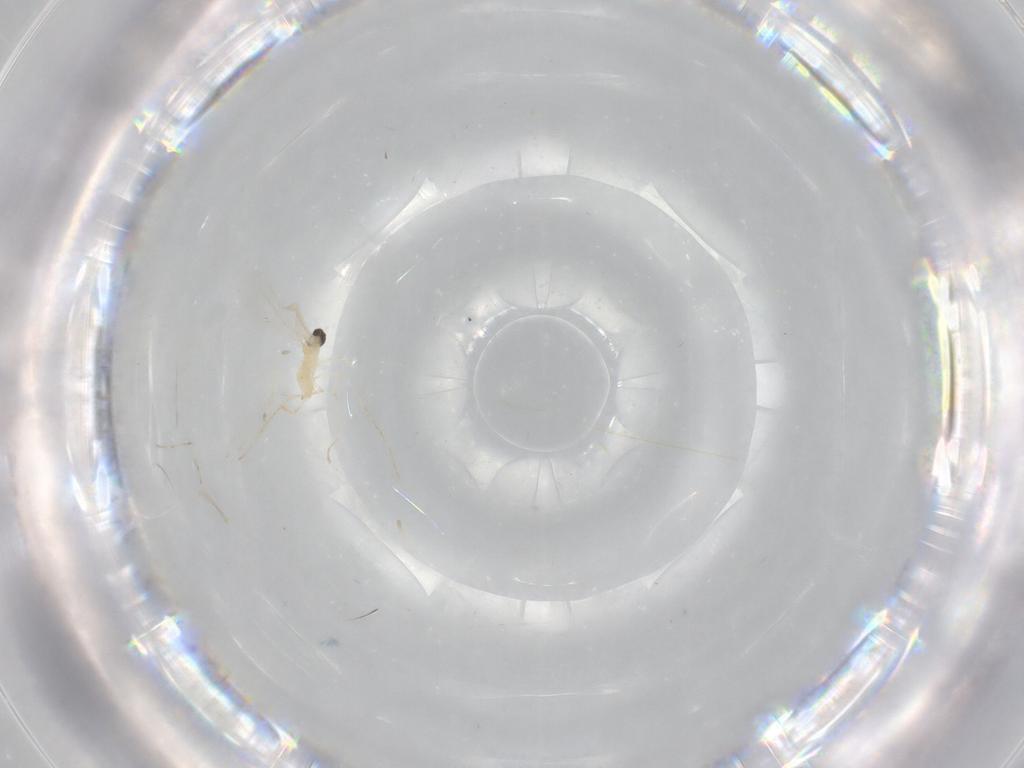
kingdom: Animalia
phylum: Arthropoda
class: Insecta
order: Diptera
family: Cecidomyiidae
